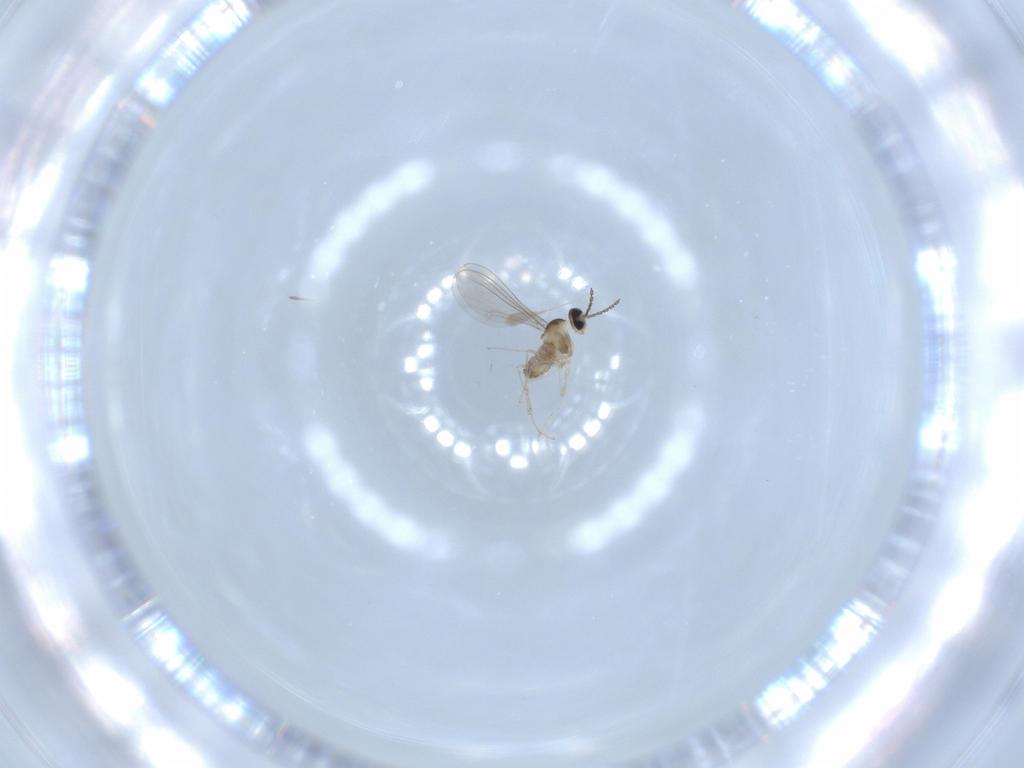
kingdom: Animalia
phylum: Arthropoda
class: Insecta
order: Diptera
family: Cecidomyiidae
